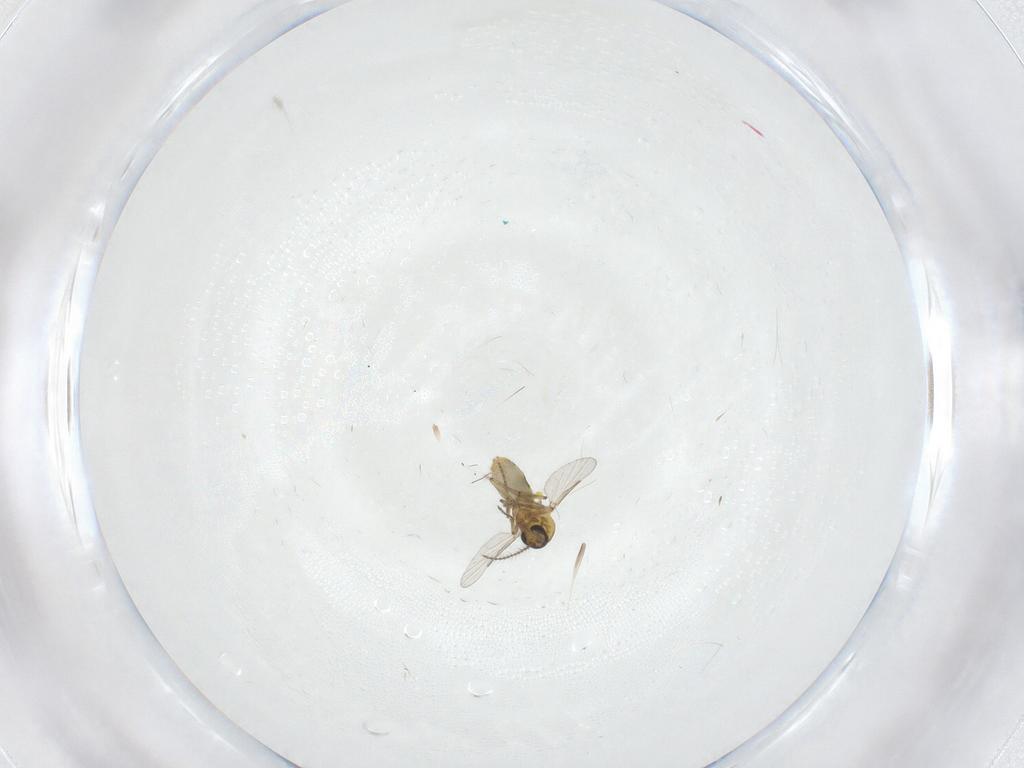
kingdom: Animalia
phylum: Arthropoda
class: Insecta
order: Diptera
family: Ceratopogonidae
